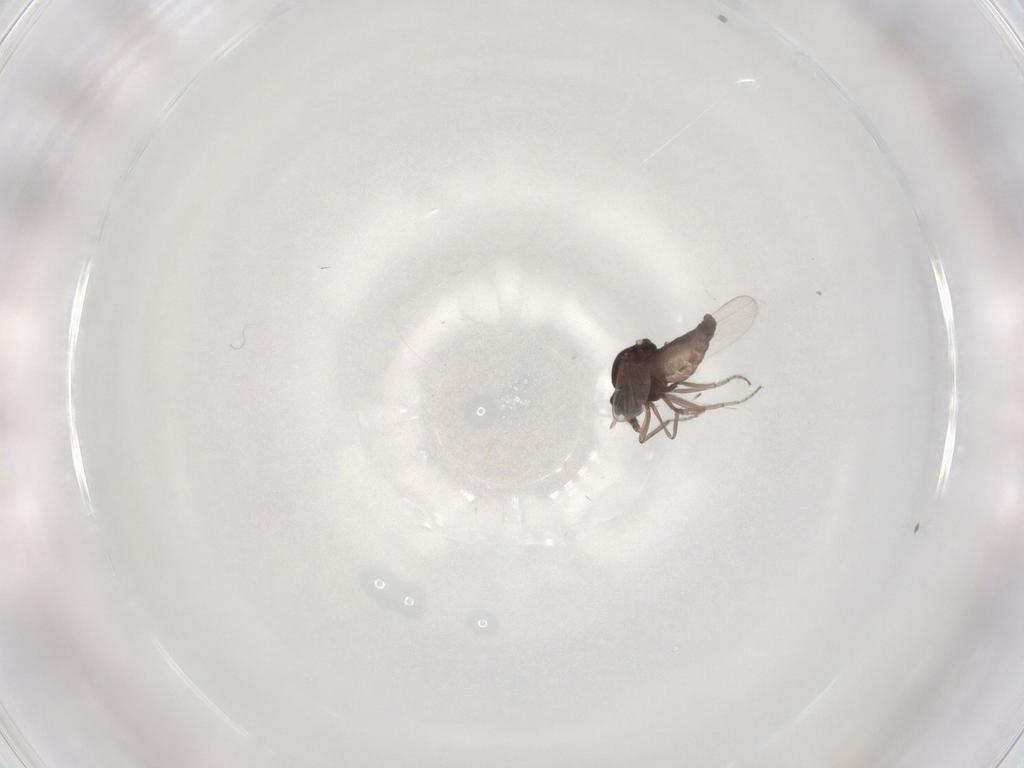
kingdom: Animalia
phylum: Arthropoda
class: Insecta
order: Diptera
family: Ceratopogonidae
